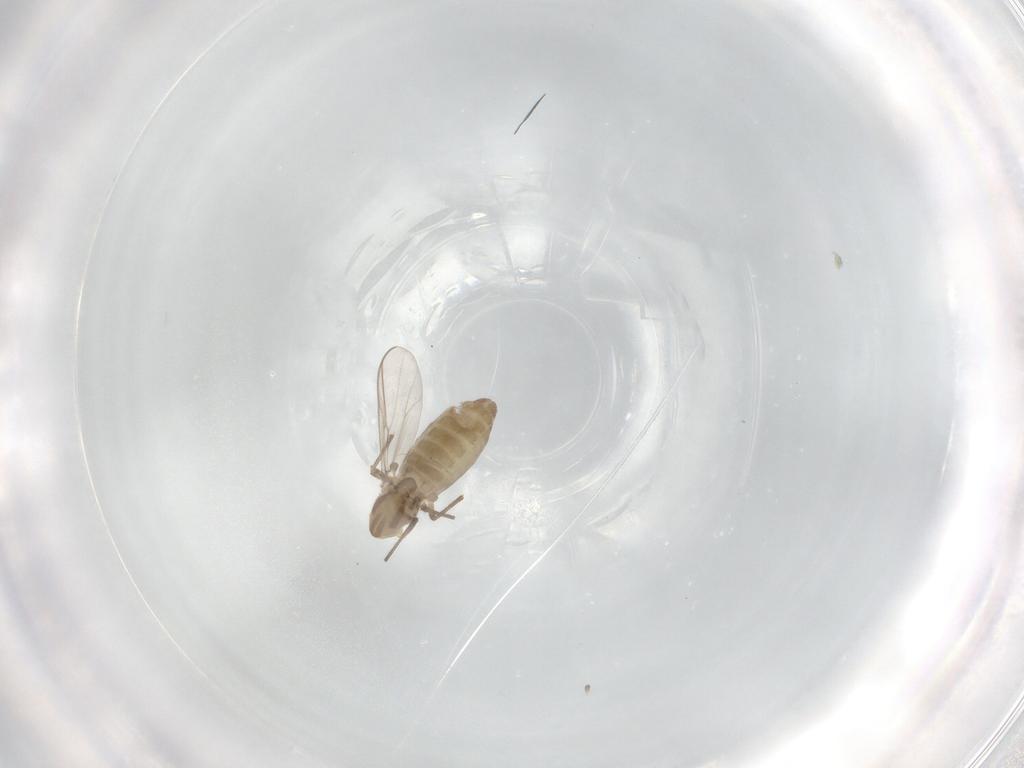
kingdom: Animalia
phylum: Arthropoda
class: Insecta
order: Diptera
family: Chironomidae
